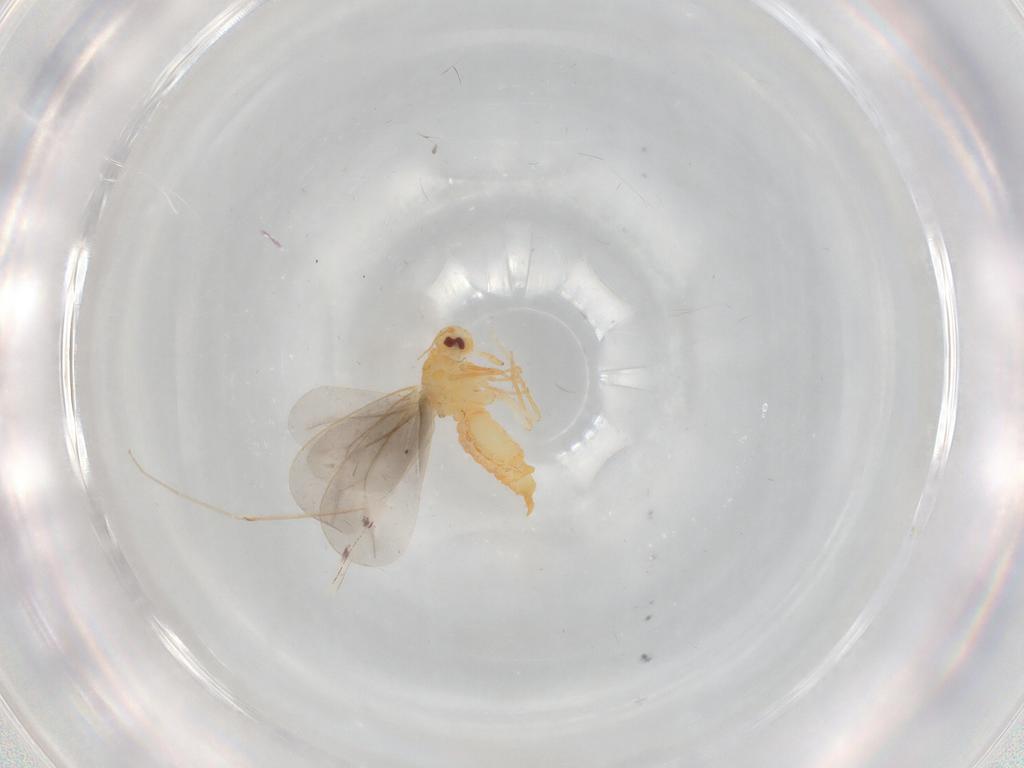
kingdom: Animalia
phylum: Arthropoda
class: Insecta
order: Hemiptera
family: Aleyrodidae
